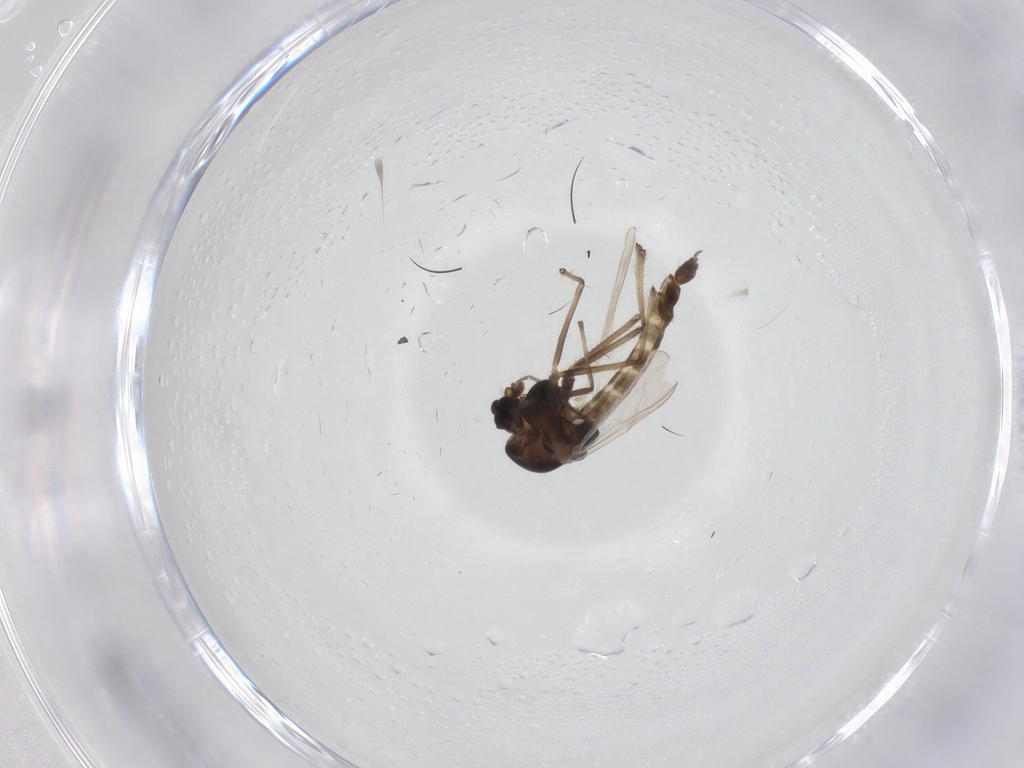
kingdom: Animalia
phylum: Arthropoda
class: Insecta
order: Diptera
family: Chironomidae
